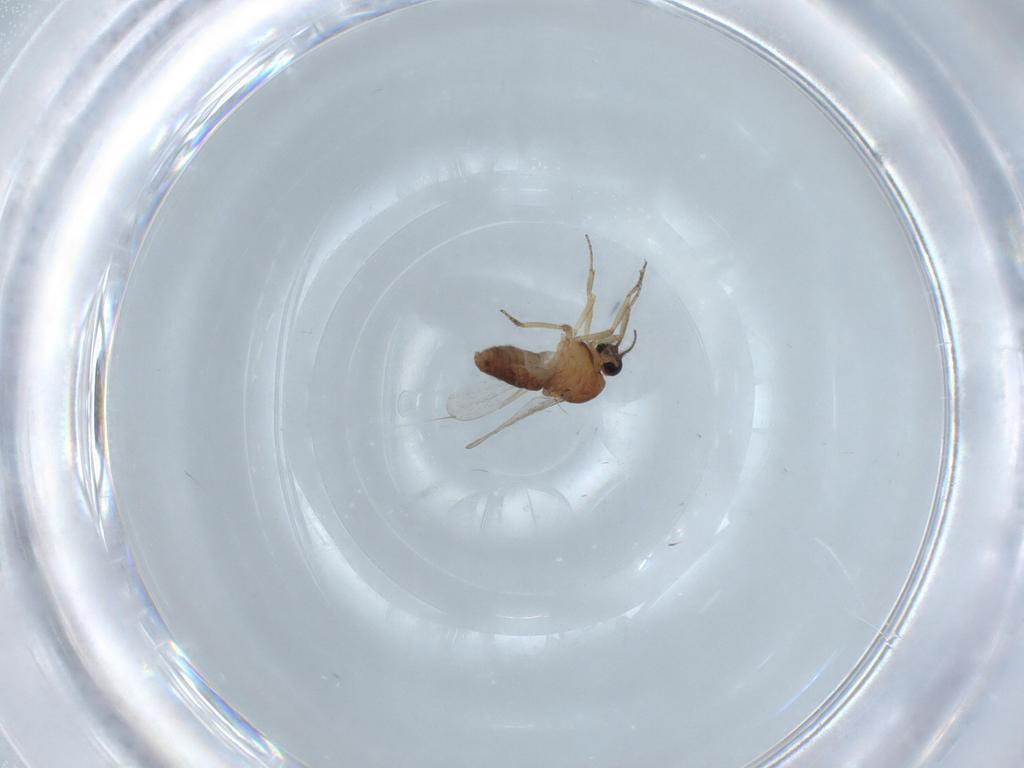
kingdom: Animalia
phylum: Arthropoda
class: Insecta
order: Diptera
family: Ceratopogonidae
